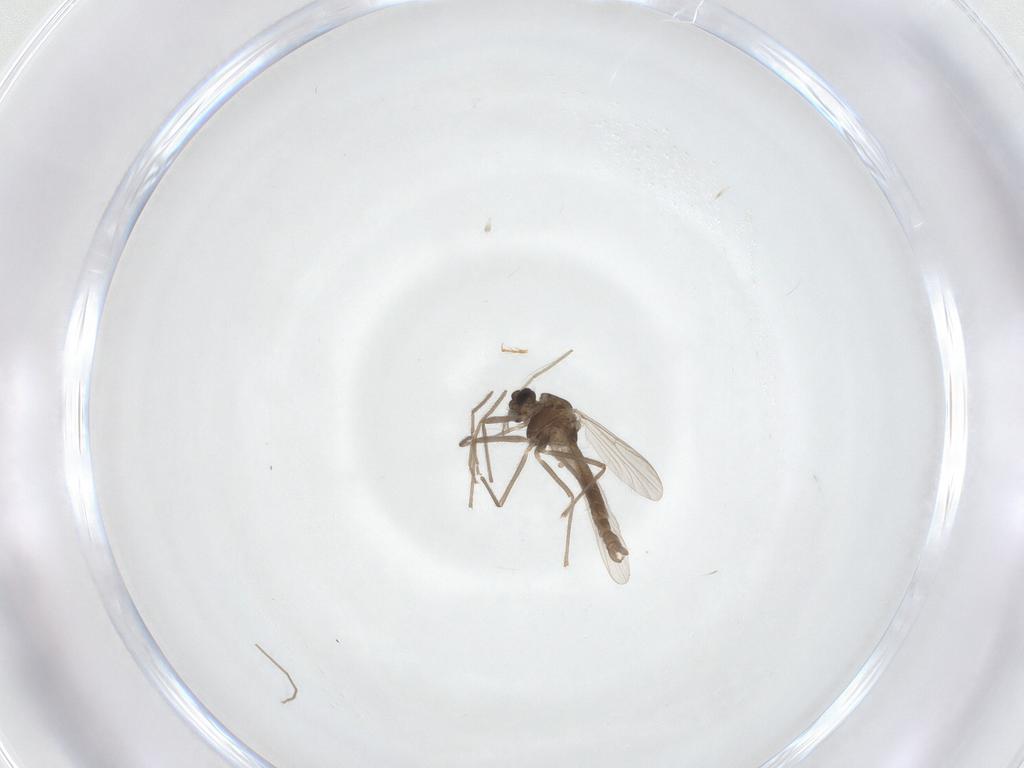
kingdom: Animalia
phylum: Arthropoda
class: Insecta
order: Diptera
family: Chironomidae
